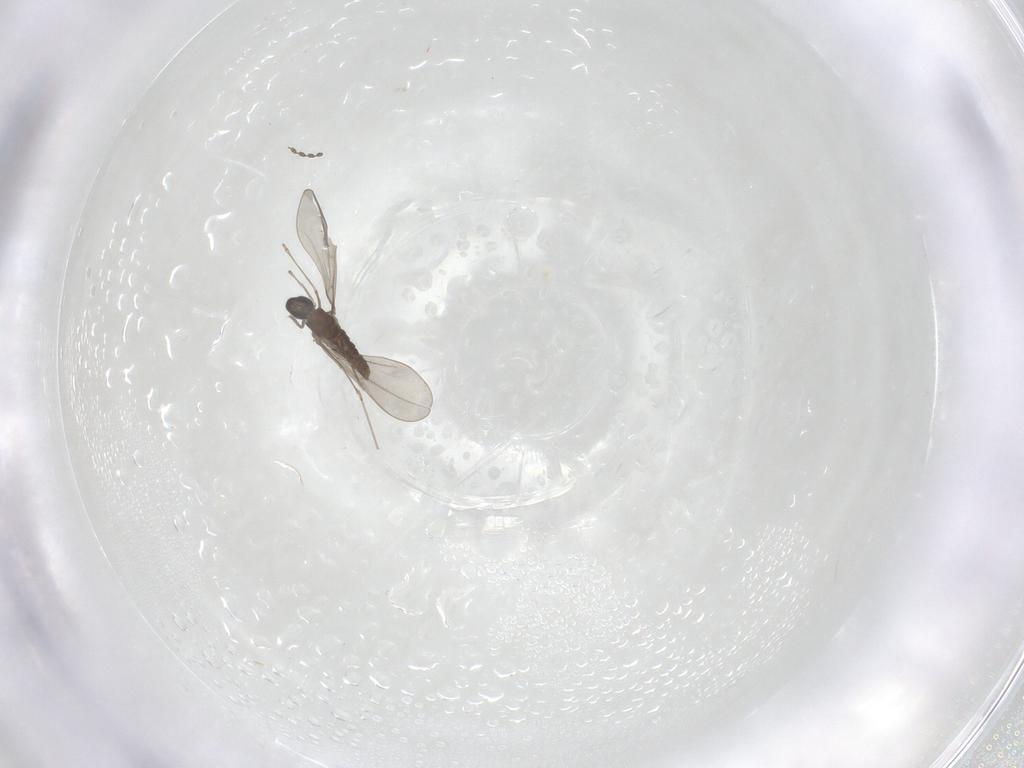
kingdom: Animalia
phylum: Arthropoda
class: Insecta
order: Diptera
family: Cecidomyiidae
